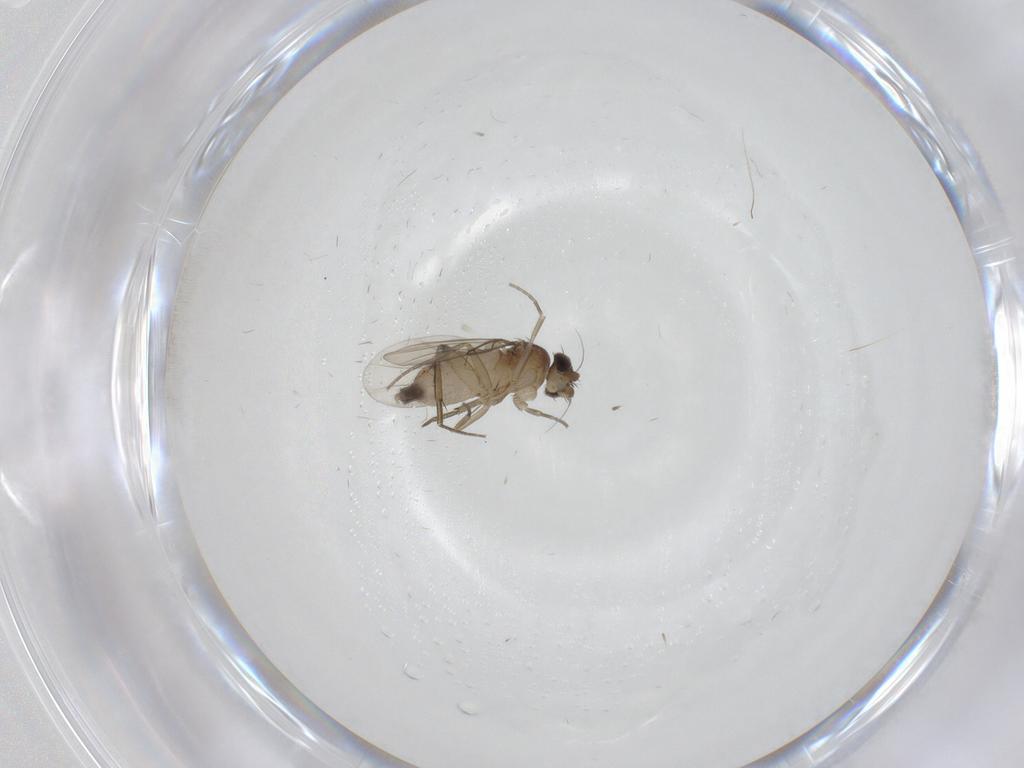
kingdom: Animalia
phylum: Arthropoda
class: Insecta
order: Diptera
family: Phoridae
